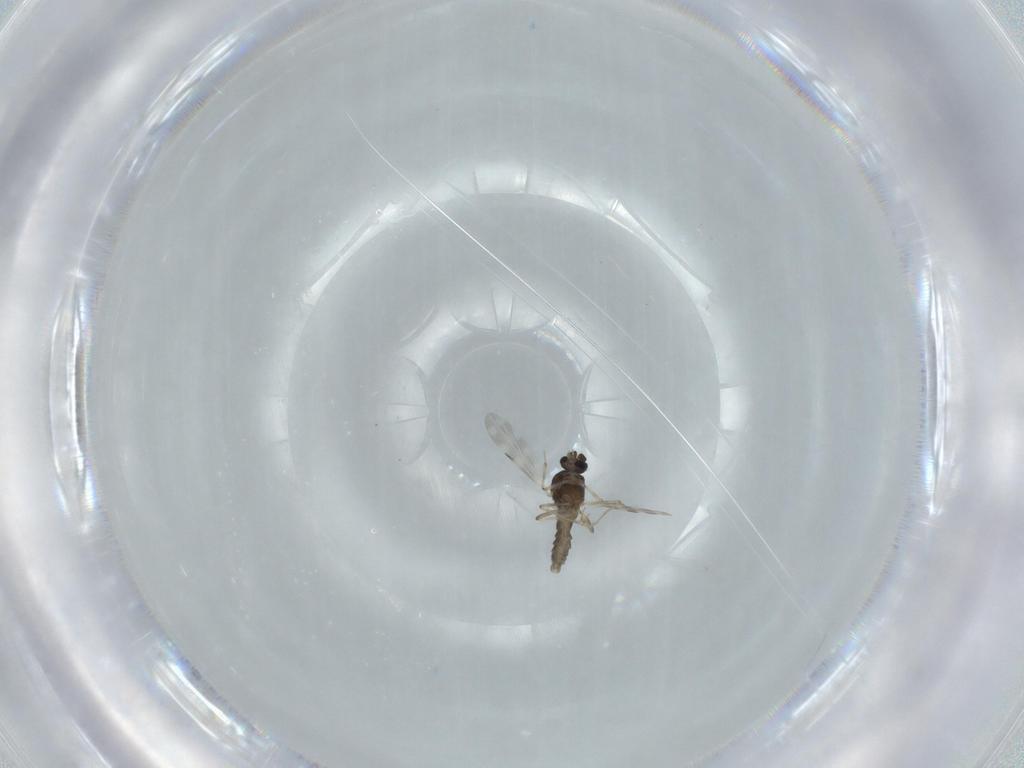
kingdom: Animalia
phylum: Arthropoda
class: Insecta
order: Diptera
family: Ceratopogonidae
